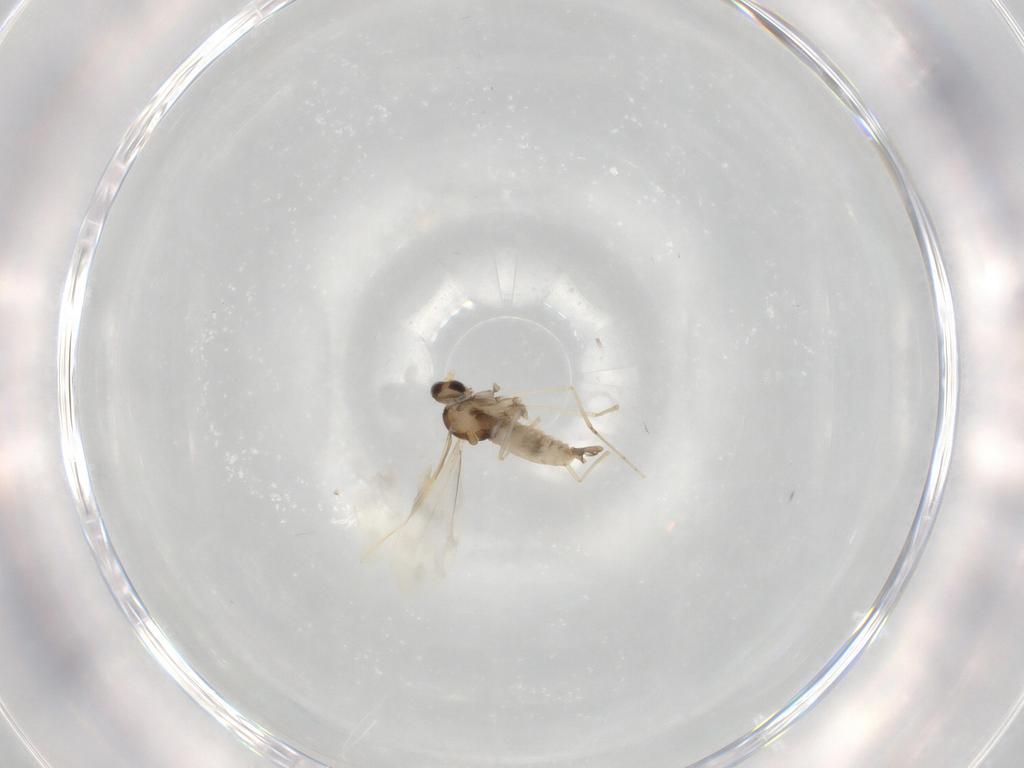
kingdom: Animalia
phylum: Arthropoda
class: Insecta
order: Diptera
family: Cecidomyiidae
